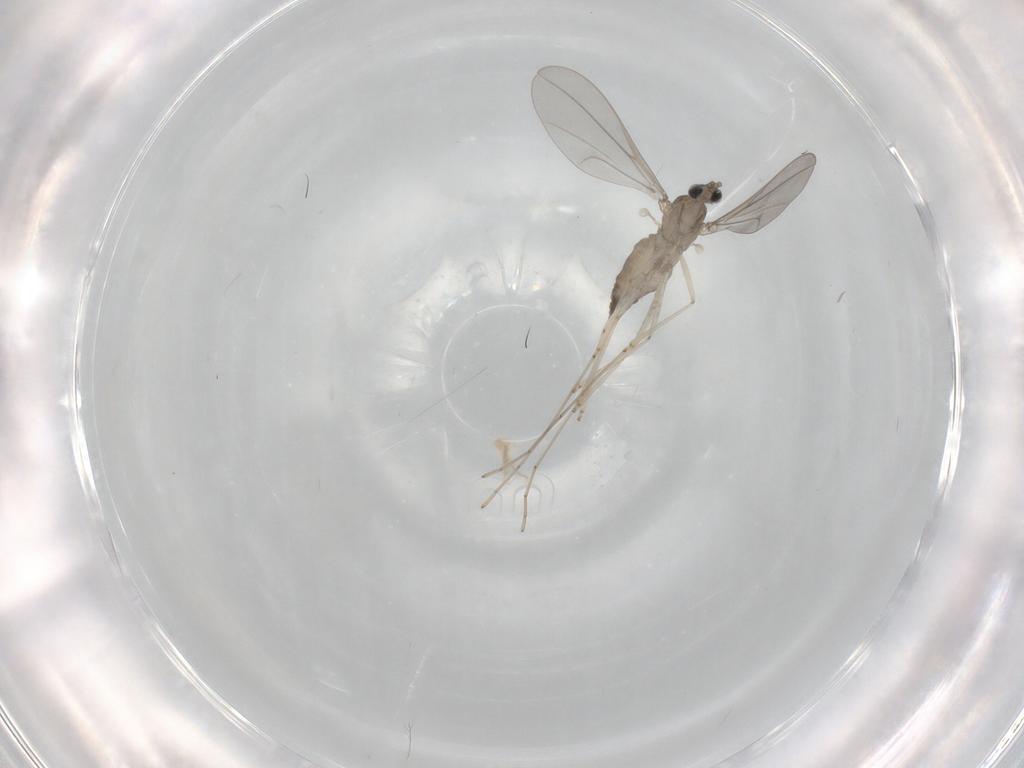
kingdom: Animalia
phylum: Arthropoda
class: Insecta
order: Diptera
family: Cecidomyiidae
